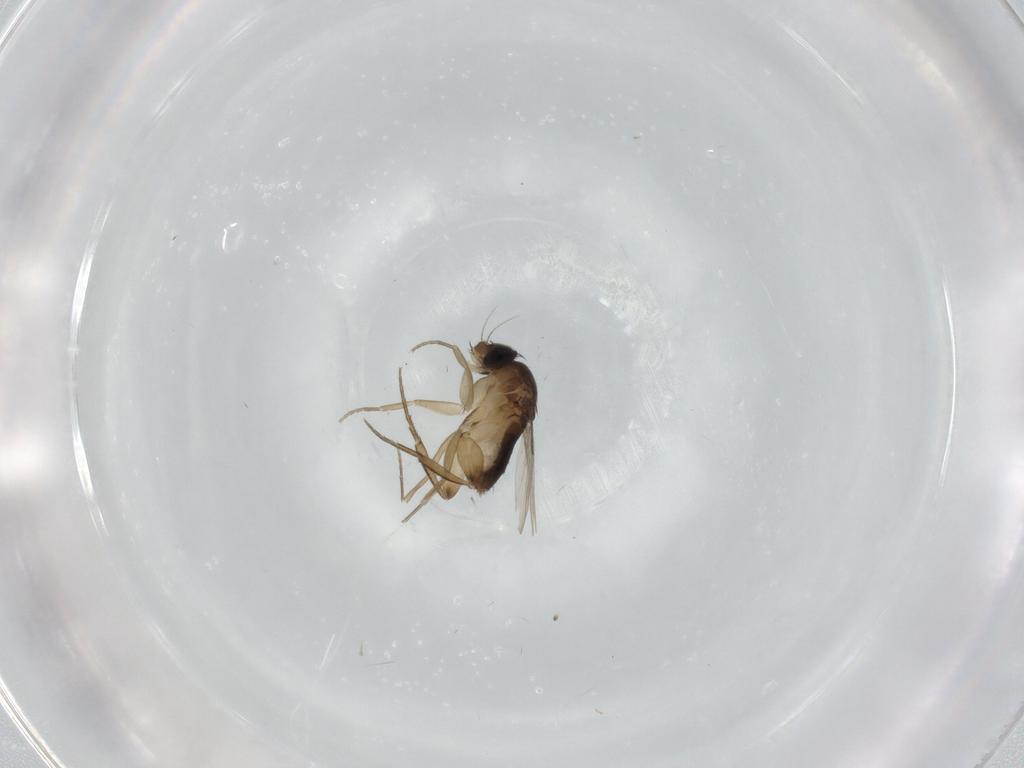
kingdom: Animalia
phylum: Arthropoda
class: Insecta
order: Diptera
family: Phoridae
